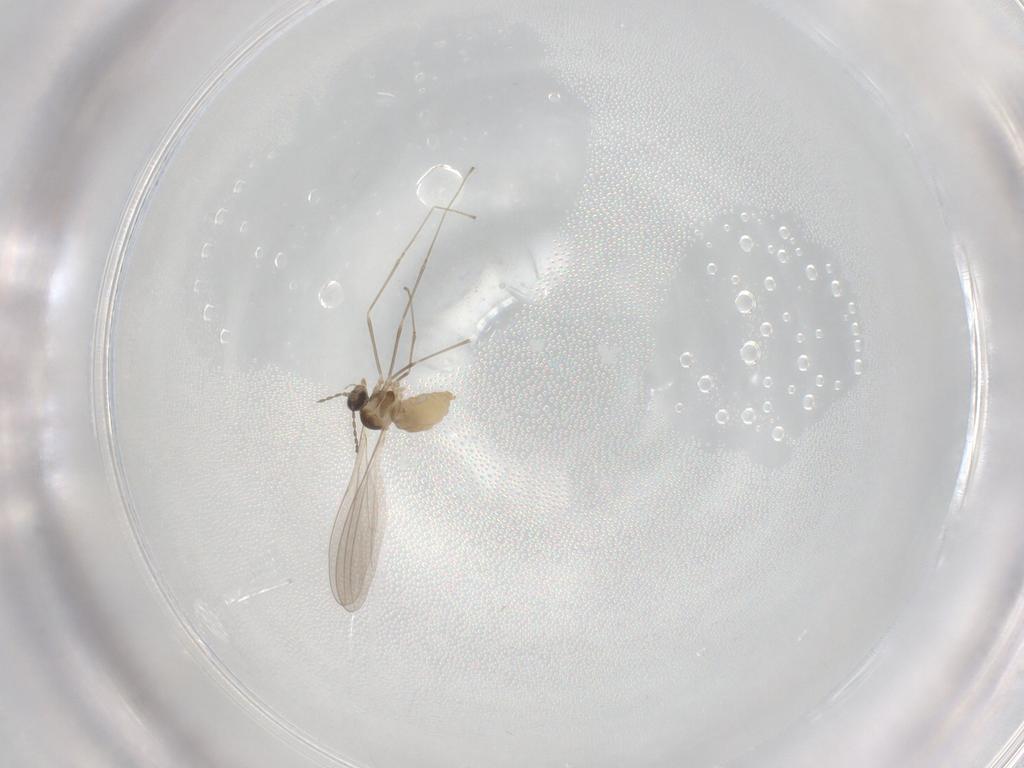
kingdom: Animalia
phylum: Arthropoda
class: Insecta
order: Diptera
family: Cecidomyiidae
